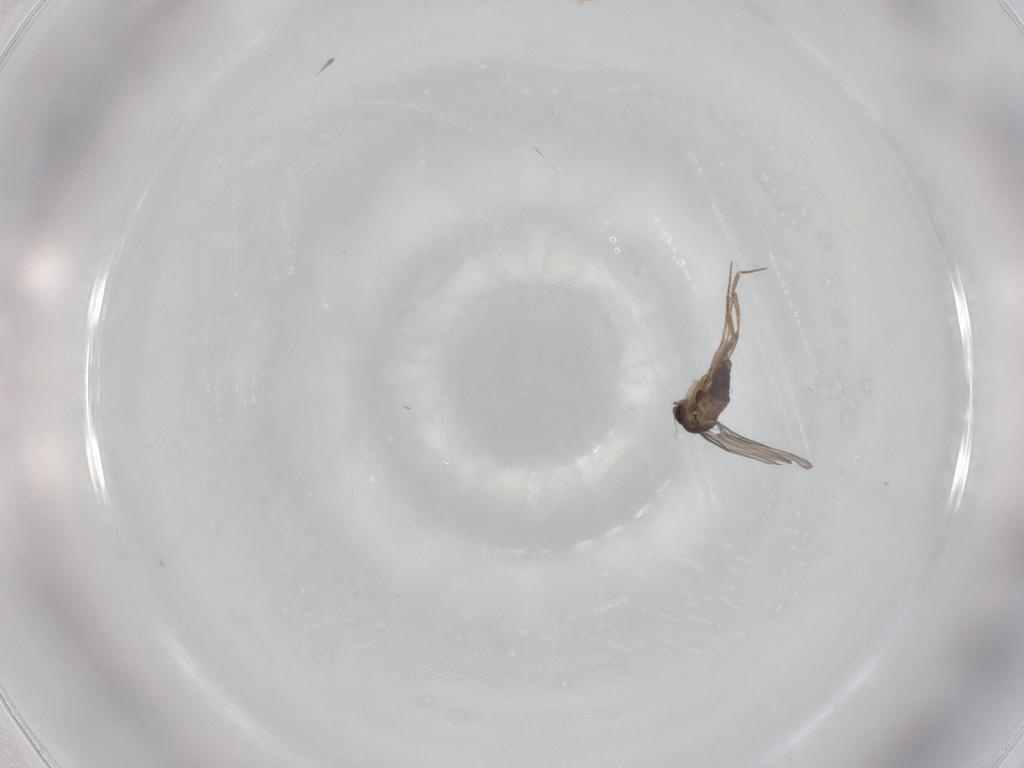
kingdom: Animalia
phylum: Arthropoda
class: Insecta
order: Diptera
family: Phoridae
